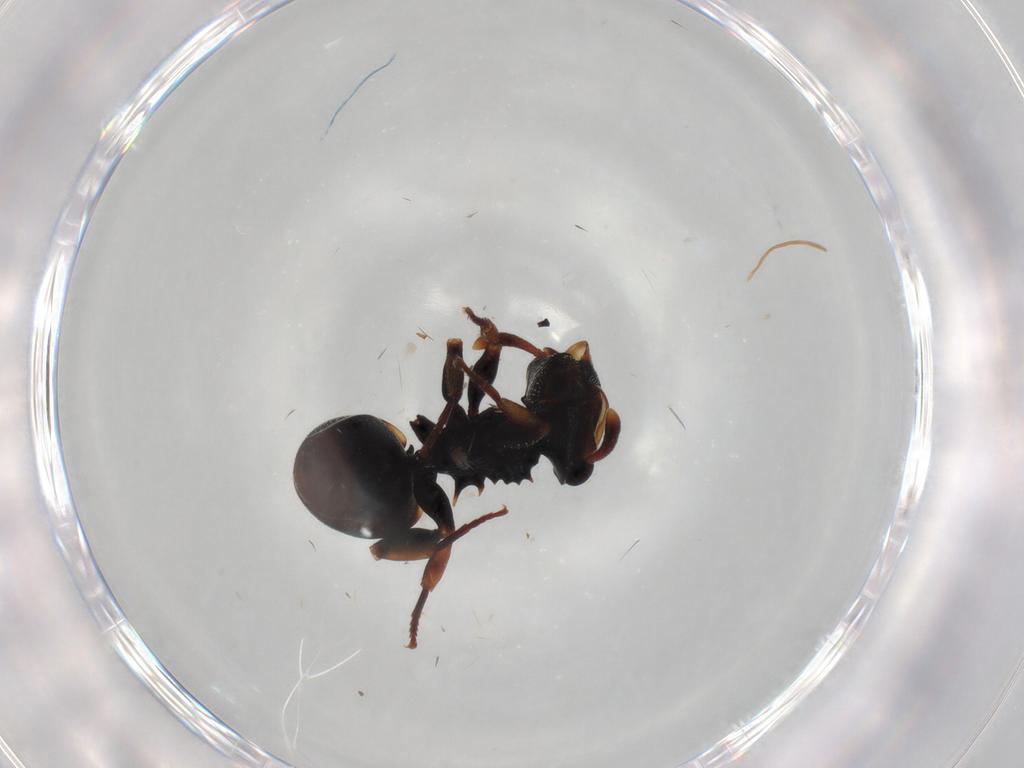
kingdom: Animalia
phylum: Arthropoda
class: Insecta
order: Hymenoptera
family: Formicidae
